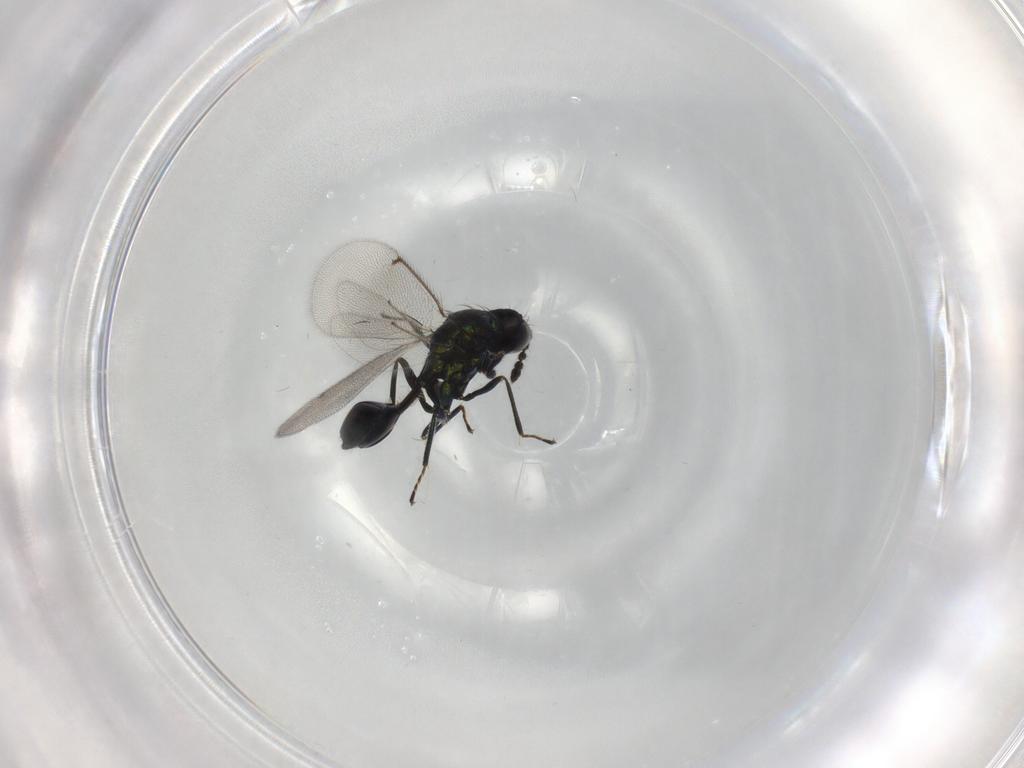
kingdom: Animalia
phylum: Arthropoda
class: Insecta
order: Hymenoptera
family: Eulophidae
